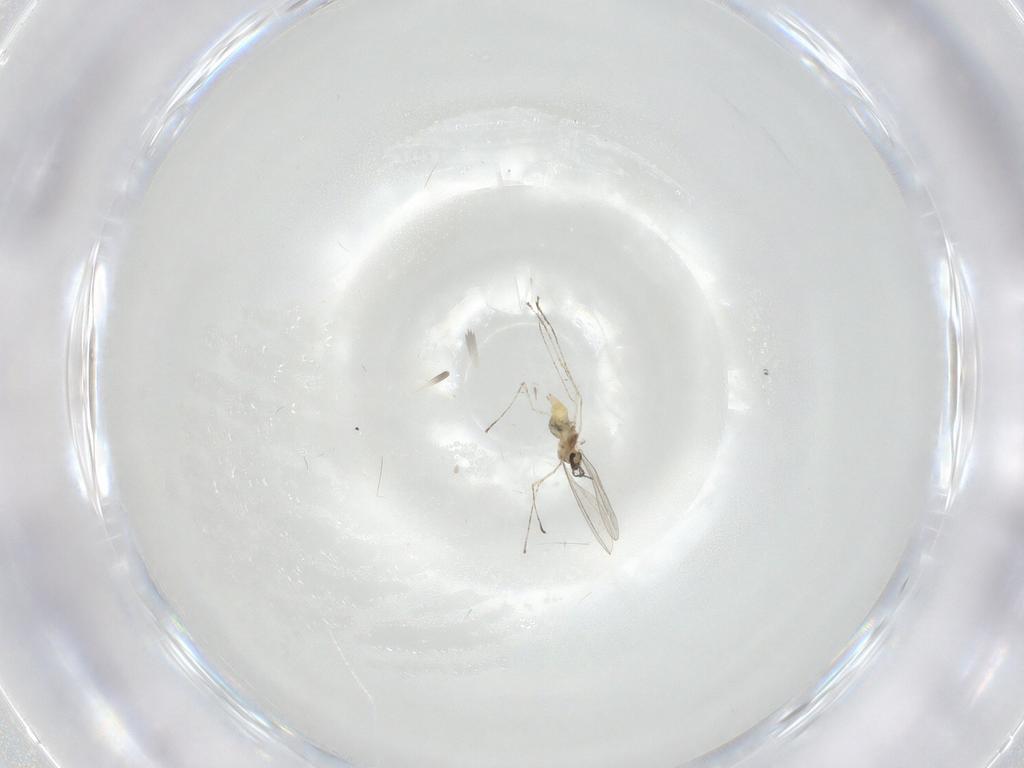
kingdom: Animalia
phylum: Arthropoda
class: Insecta
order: Diptera
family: Cecidomyiidae
